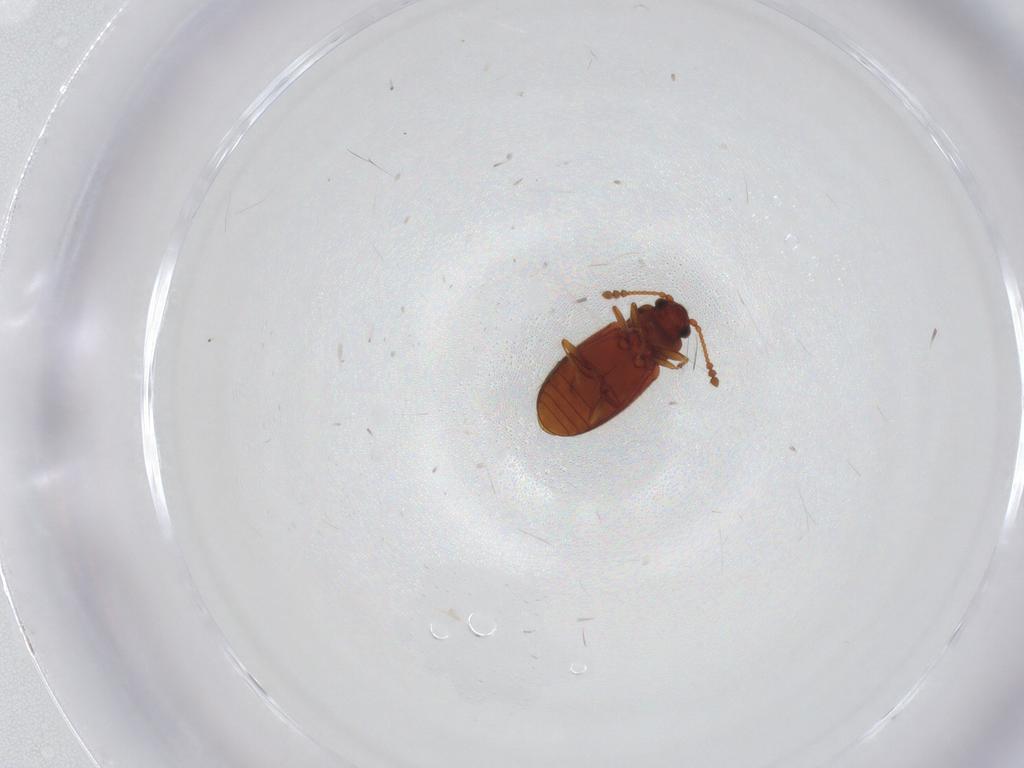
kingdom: Animalia
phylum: Arthropoda
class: Insecta
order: Coleoptera
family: Cryptophagidae
